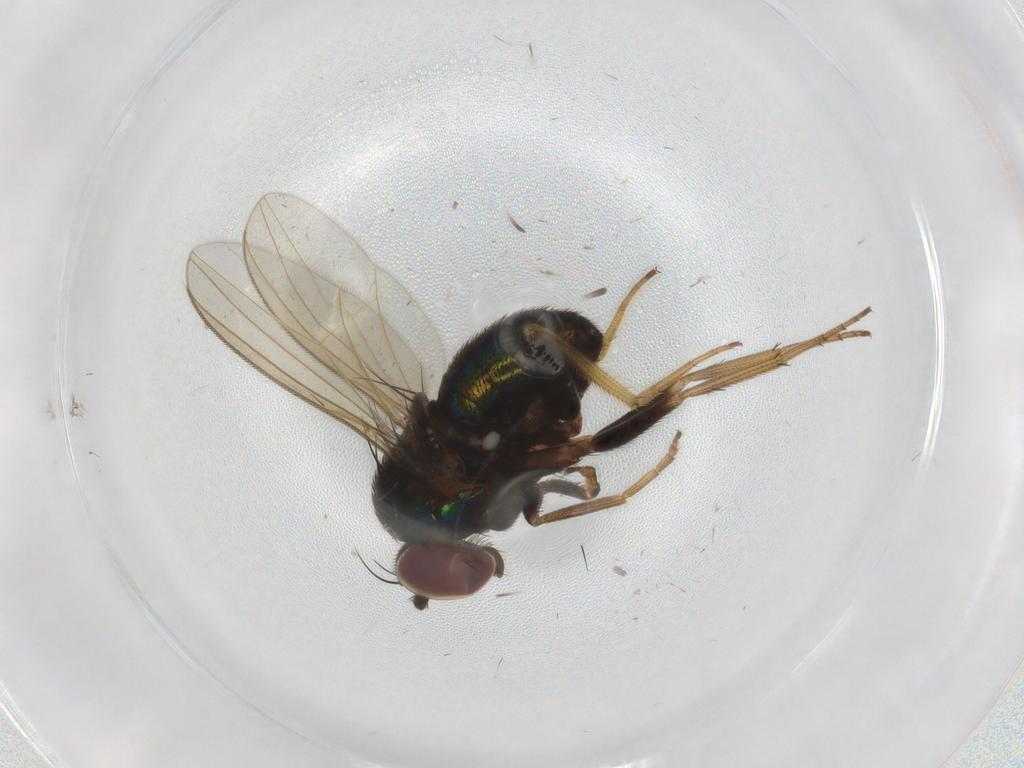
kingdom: Animalia
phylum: Arthropoda
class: Insecta
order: Diptera
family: Dolichopodidae
